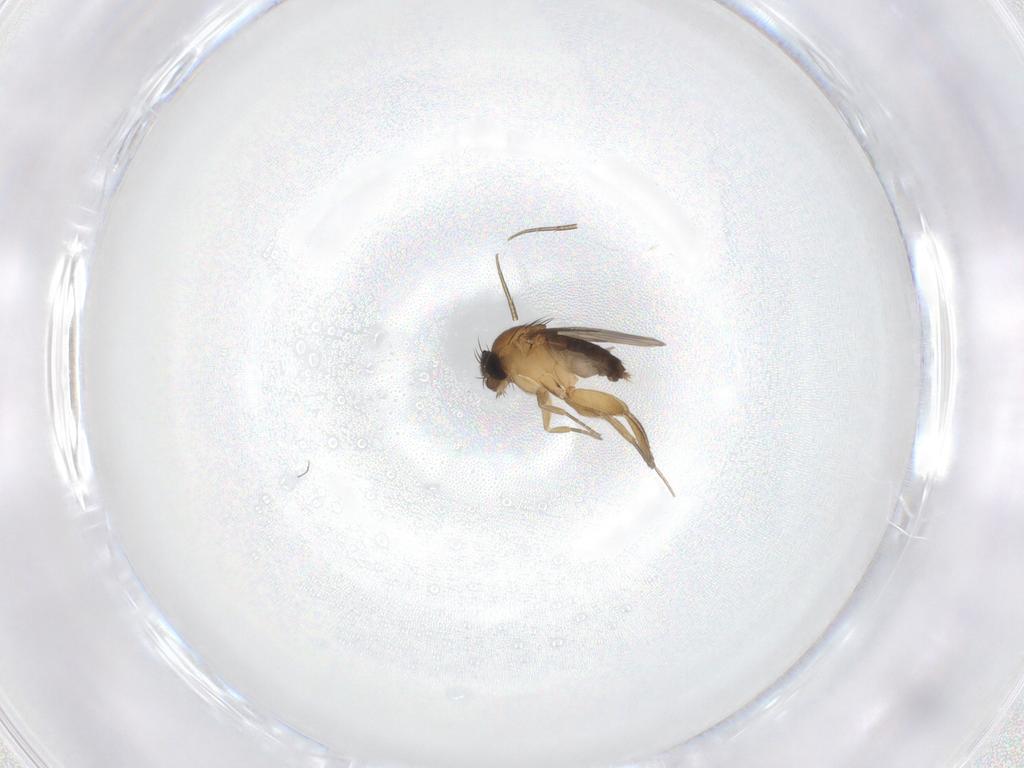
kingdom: Animalia
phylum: Arthropoda
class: Insecta
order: Diptera
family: Phoridae
